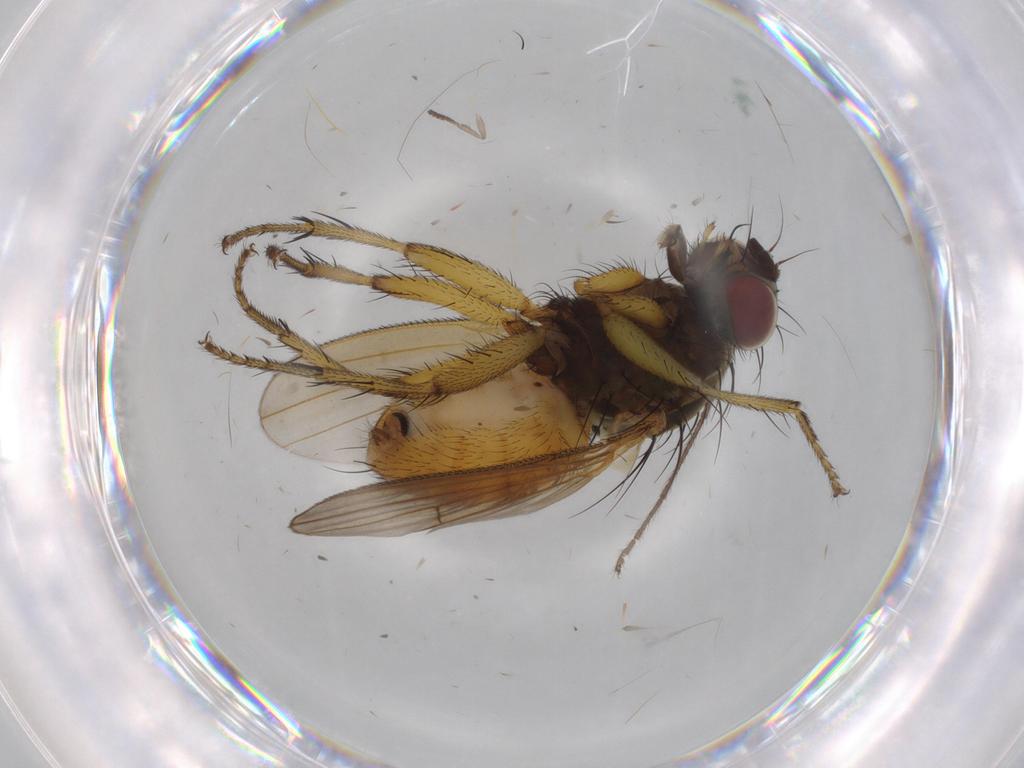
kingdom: Animalia
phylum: Arthropoda
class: Insecta
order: Diptera
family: Muscidae
